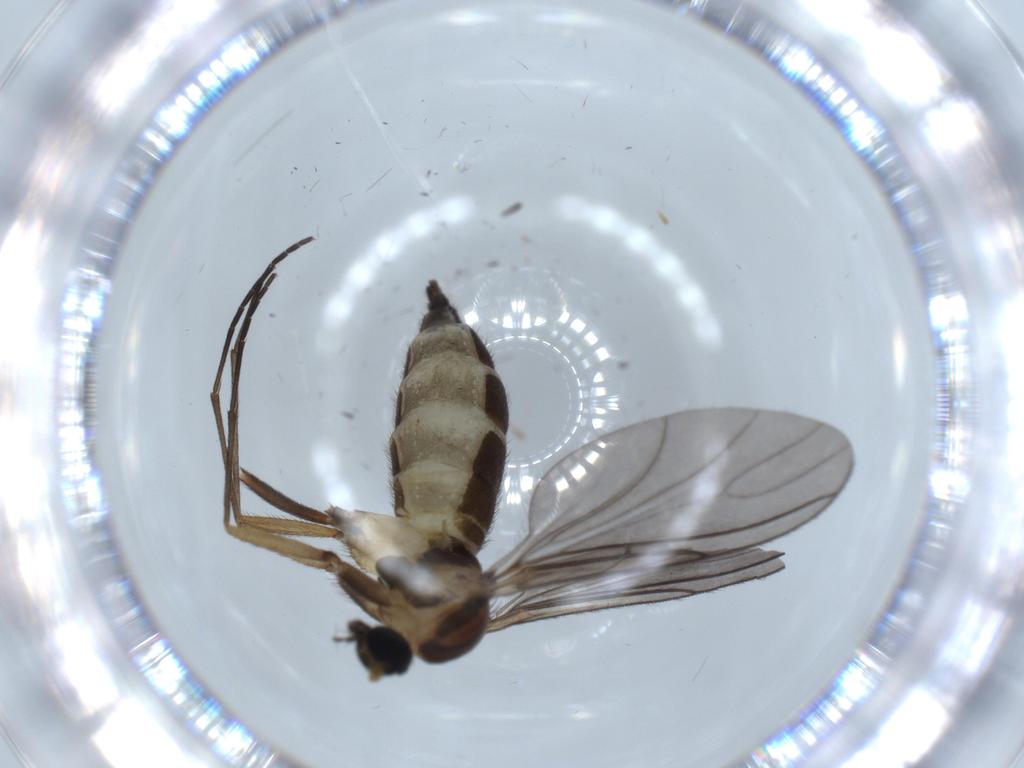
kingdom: Animalia
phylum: Arthropoda
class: Insecta
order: Diptera
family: Sciaridae
